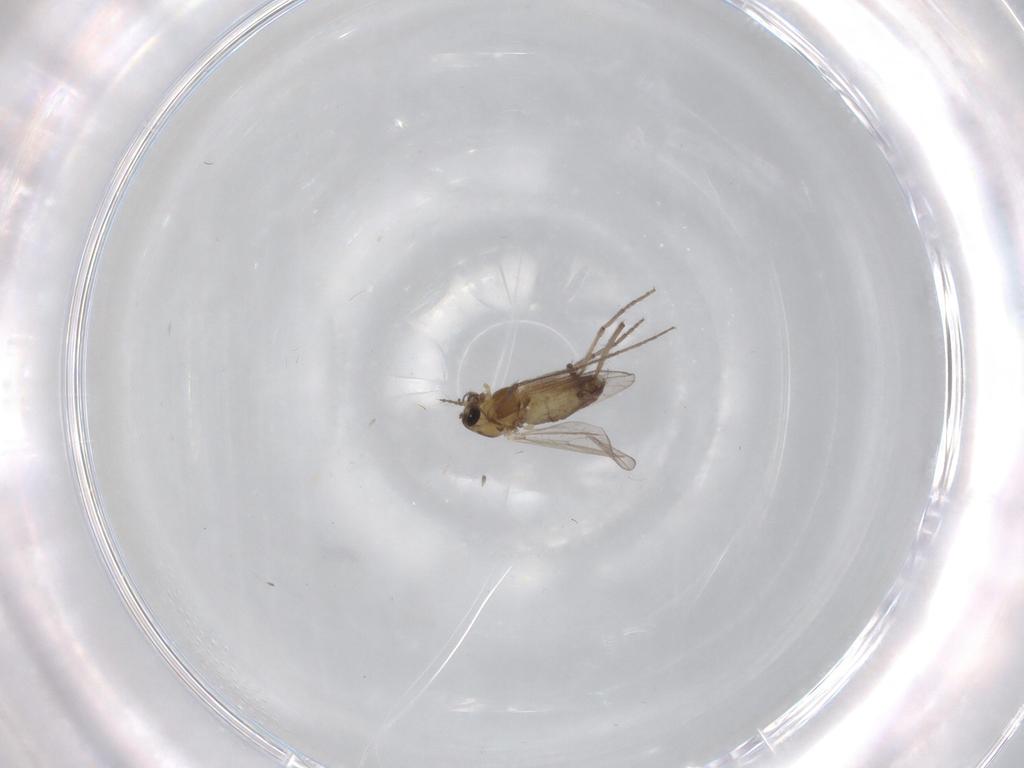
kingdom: Animalia
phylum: Arthropoda
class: Insecta
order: Diptera
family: Chironomidae
